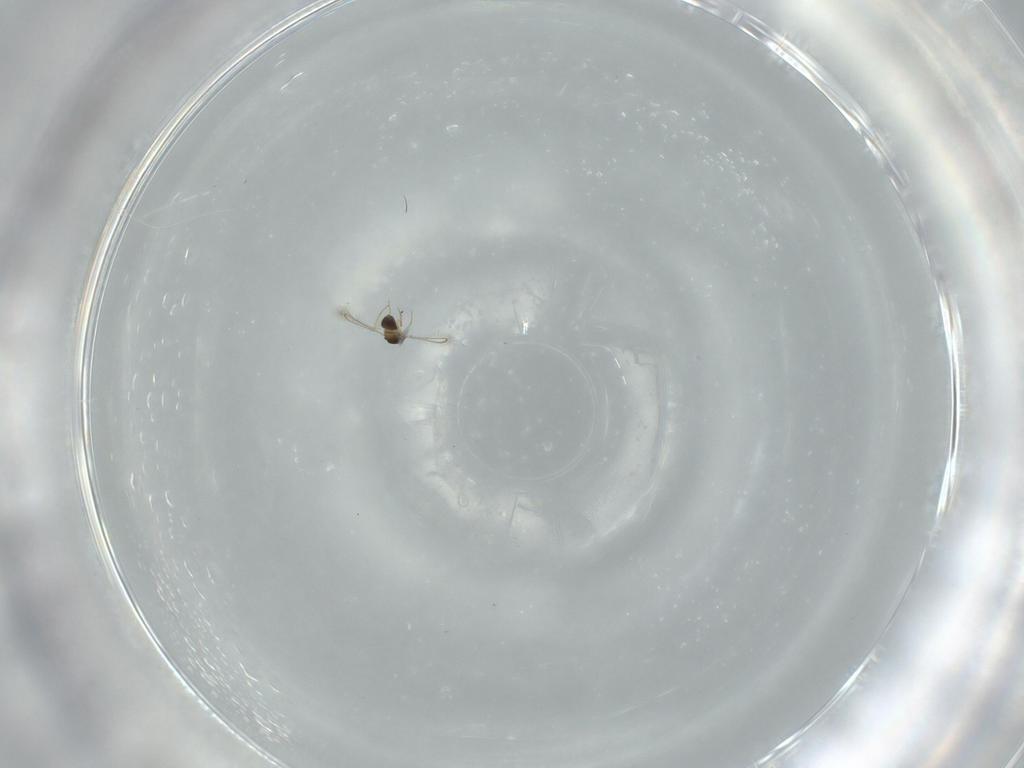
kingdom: Animalia
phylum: Arthropoda
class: Insecta
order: Hymenoptera
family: Diapriidae
